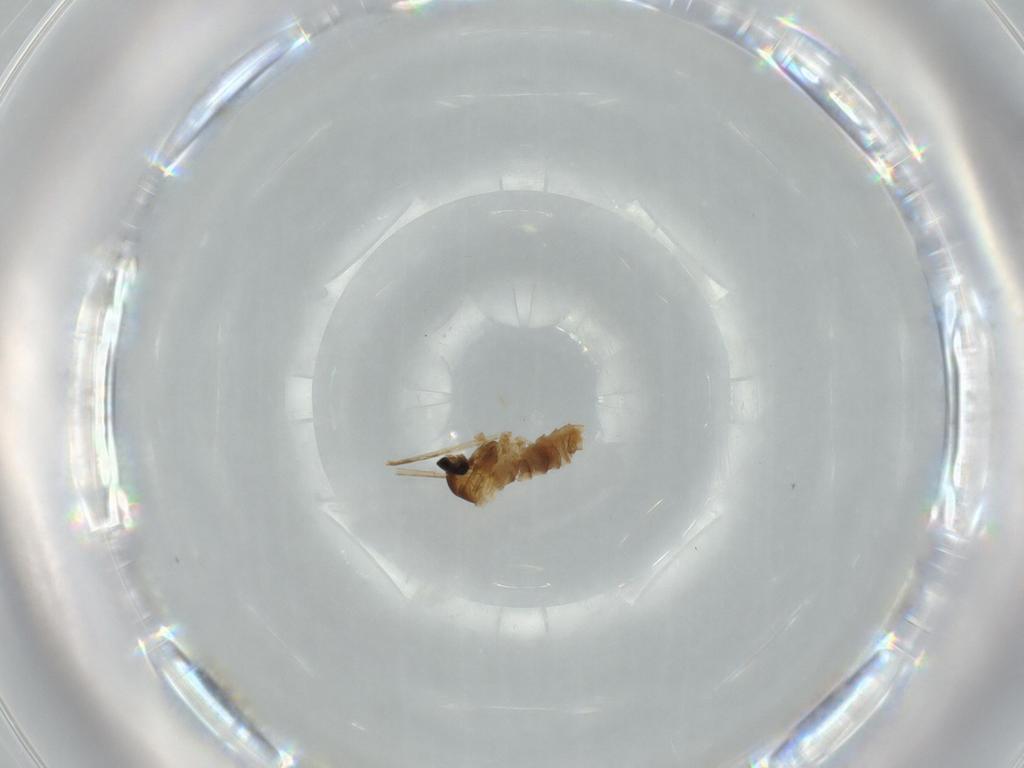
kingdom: Animalia
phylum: Arthropoda
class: Insecta
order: Diptera
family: Cecidomyiidae
